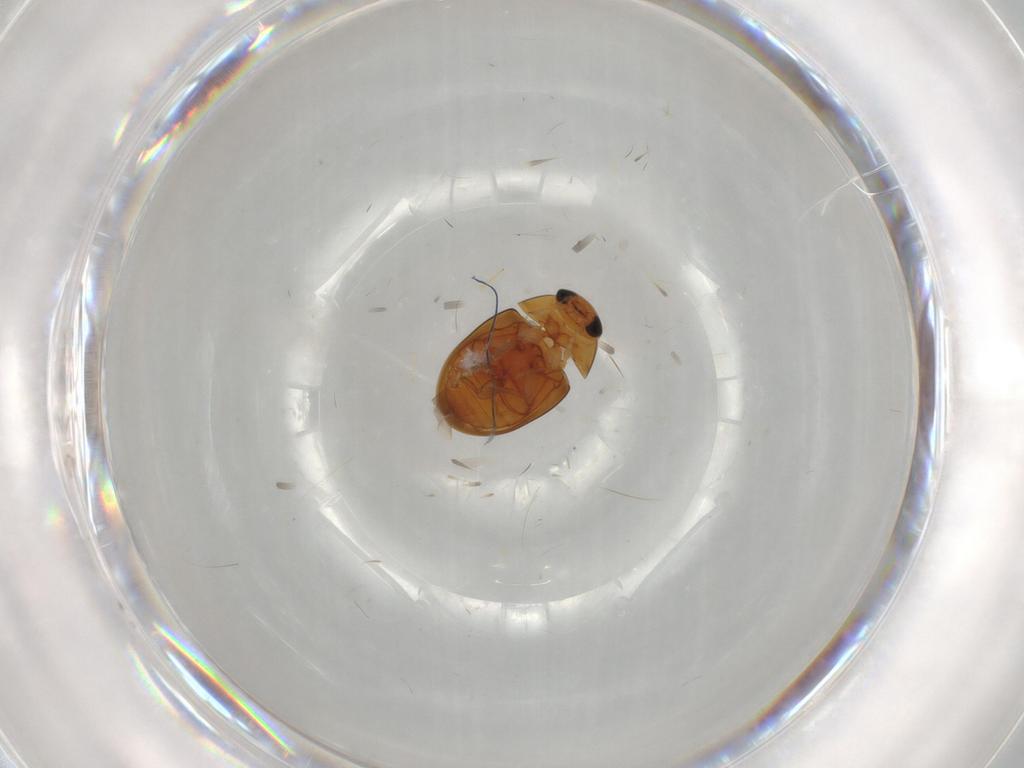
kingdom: Animalia
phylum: Arthropoda
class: Insecta
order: Coleoptera
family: Phalacridae
